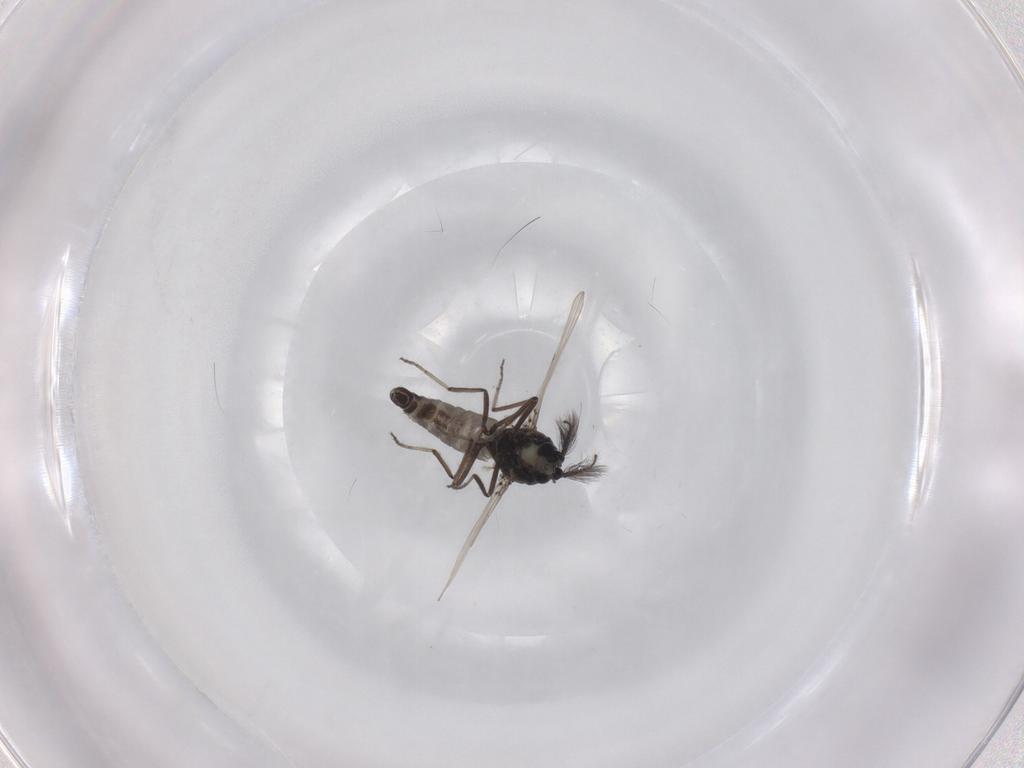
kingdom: Animalia
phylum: Arthropoda
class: Insecta
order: Diptera
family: Ceratopogonidae
